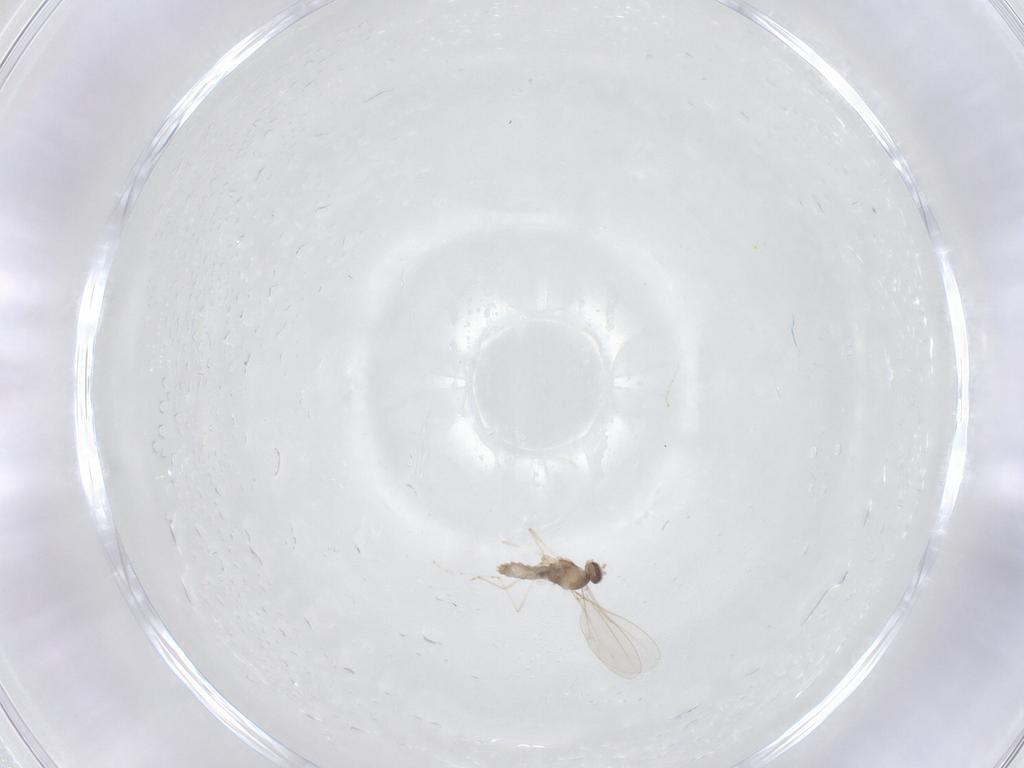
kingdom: Animalia
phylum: Arthropoda
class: Insecta
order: Diptera
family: Cecidomyiidae
